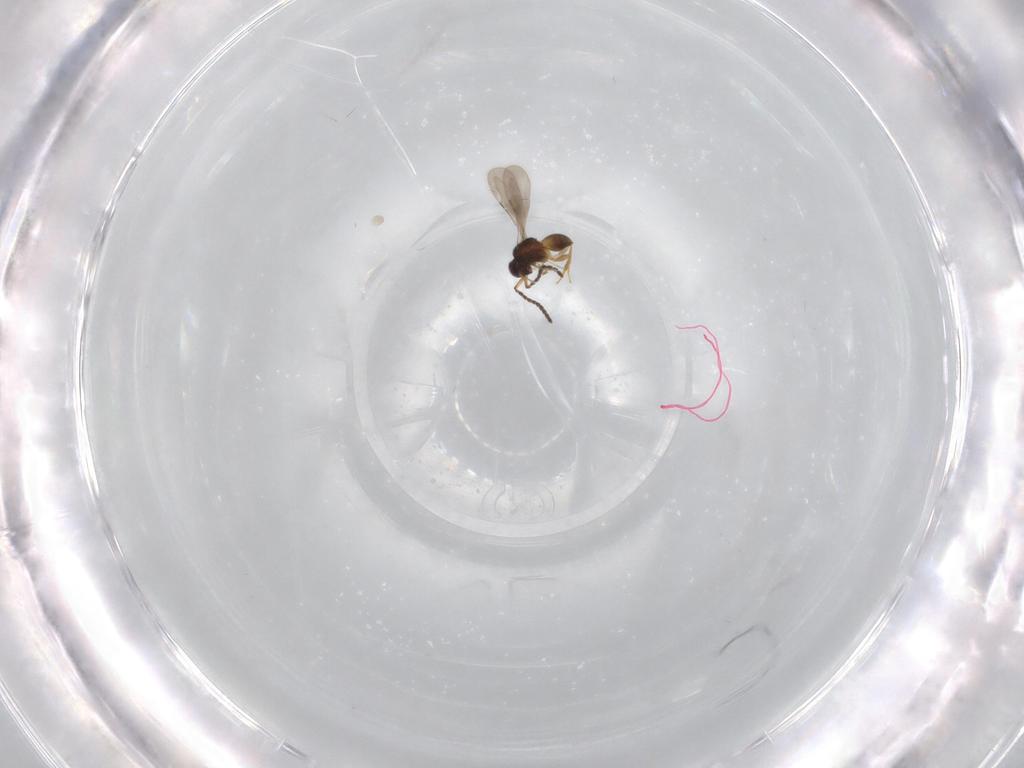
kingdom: Animalia
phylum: Arthropoda
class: Insecta
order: Hymenoptera
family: Ceraphronidae
